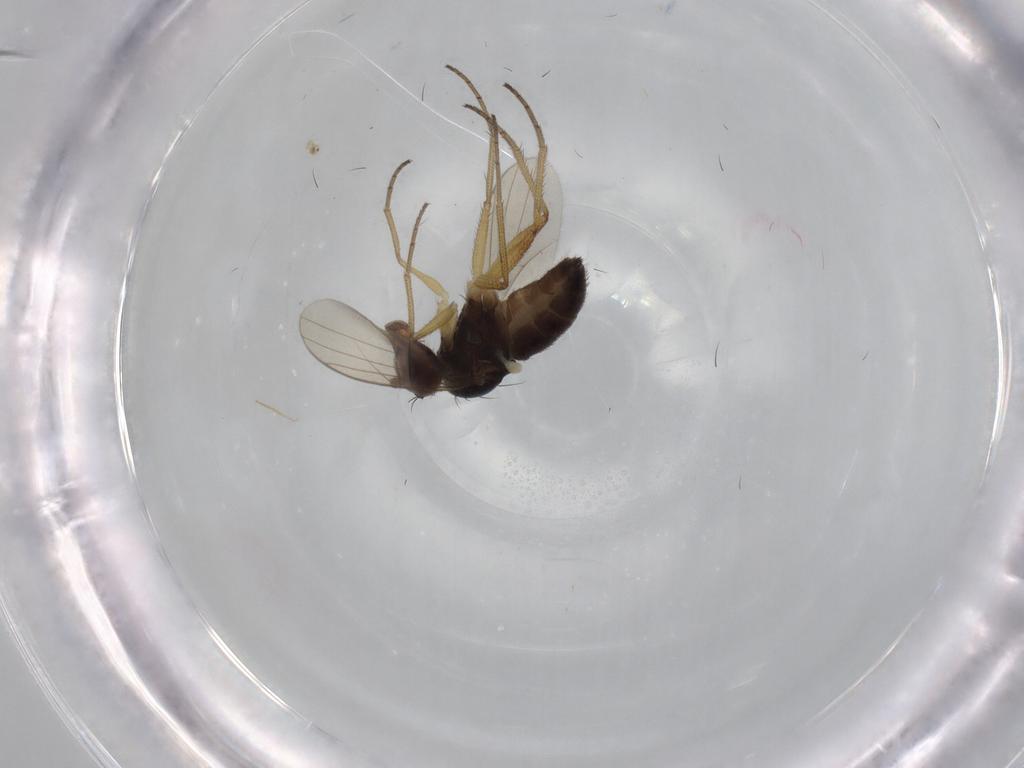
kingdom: Animalia
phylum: Arthropoda
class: Insecta
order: Diptera
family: Dolichopodidae
